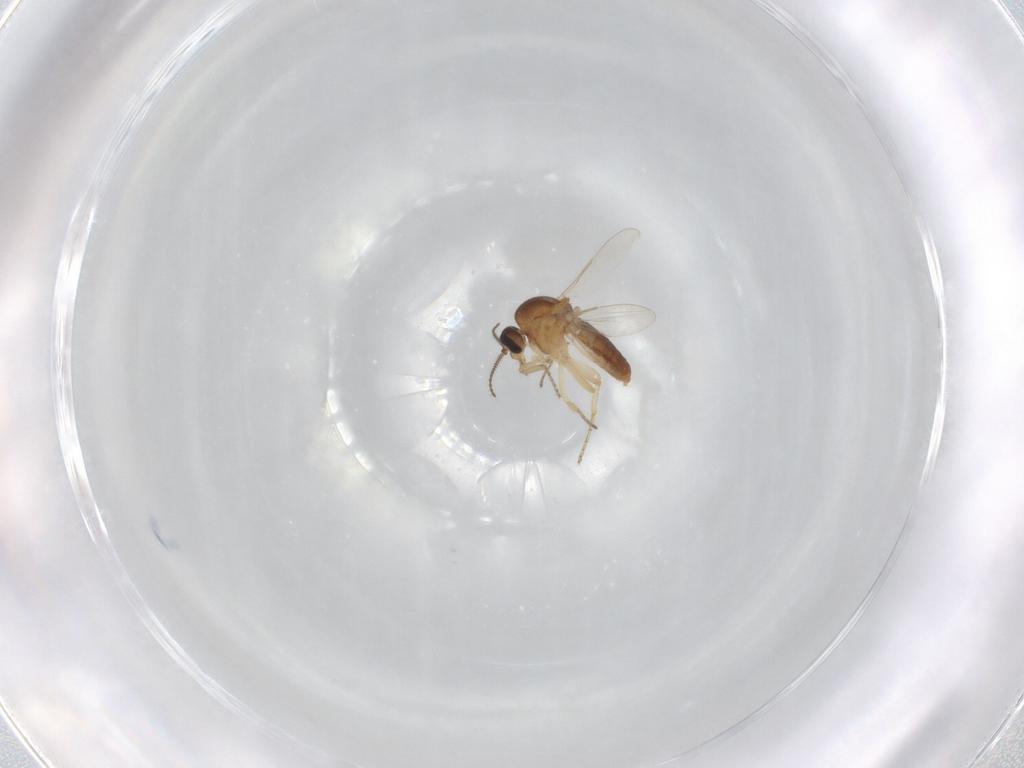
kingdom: Animalia
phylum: Arthropoda
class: Insecta
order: Diptera
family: Ceratopogonidae
